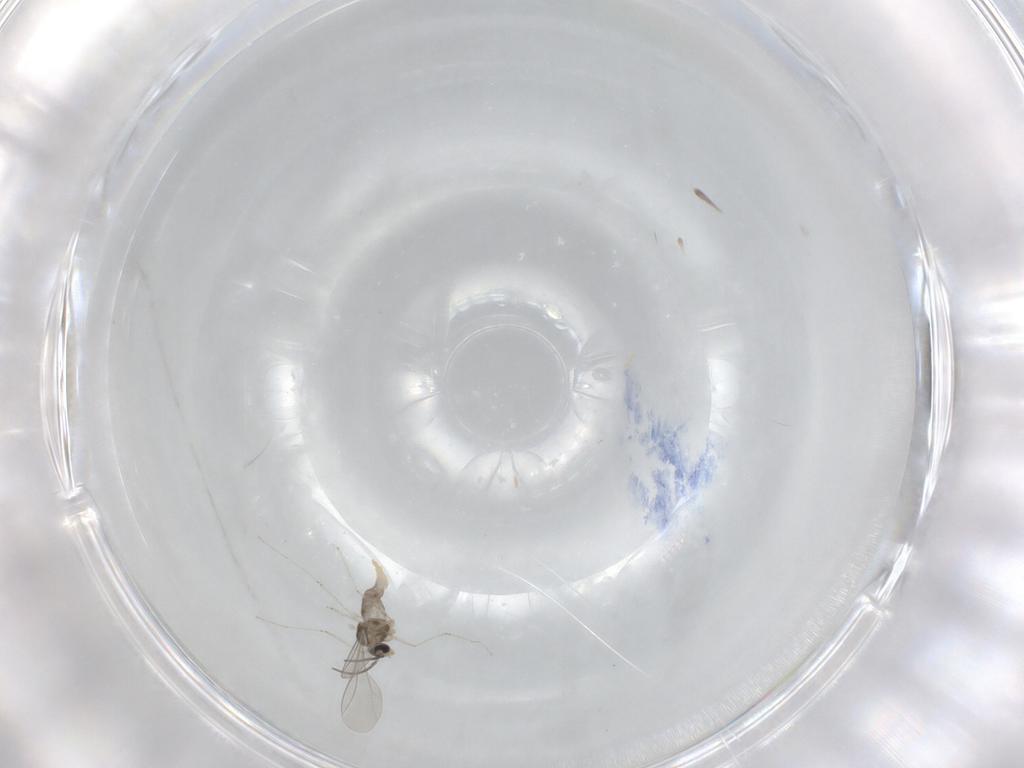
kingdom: Animalia
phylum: Arthropoda
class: Insecta
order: Diptera
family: Cecidomyiidae
